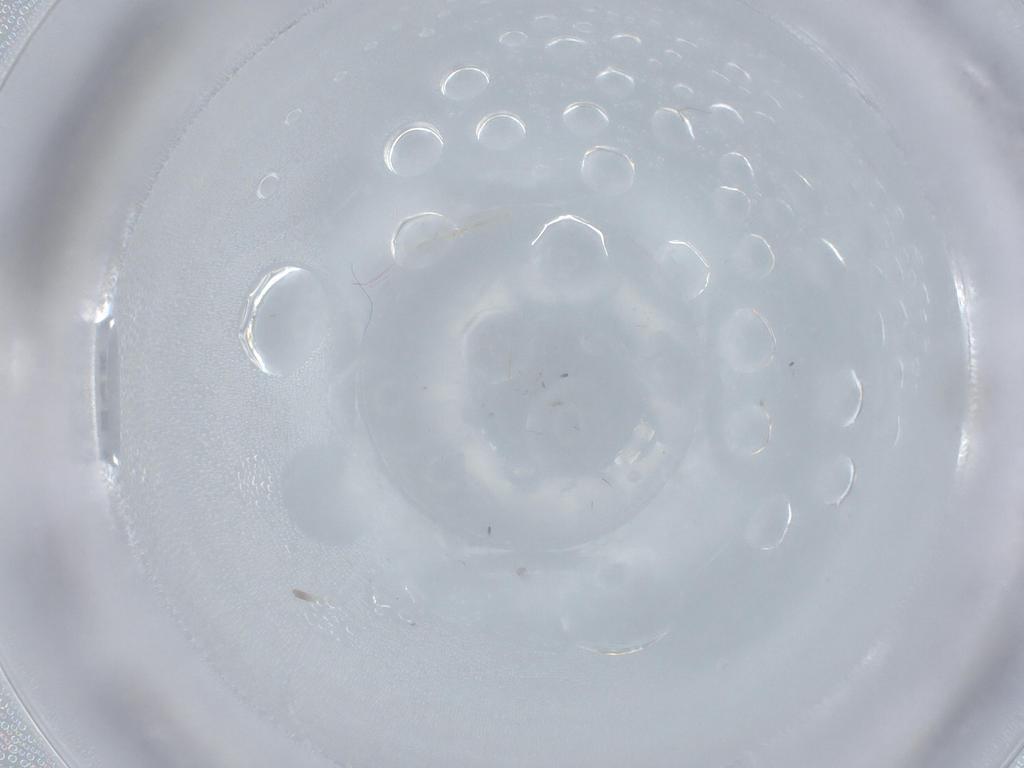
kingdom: Animalia
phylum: Arthropoda
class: Insecta
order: Diptera
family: Cecidomyiidae
